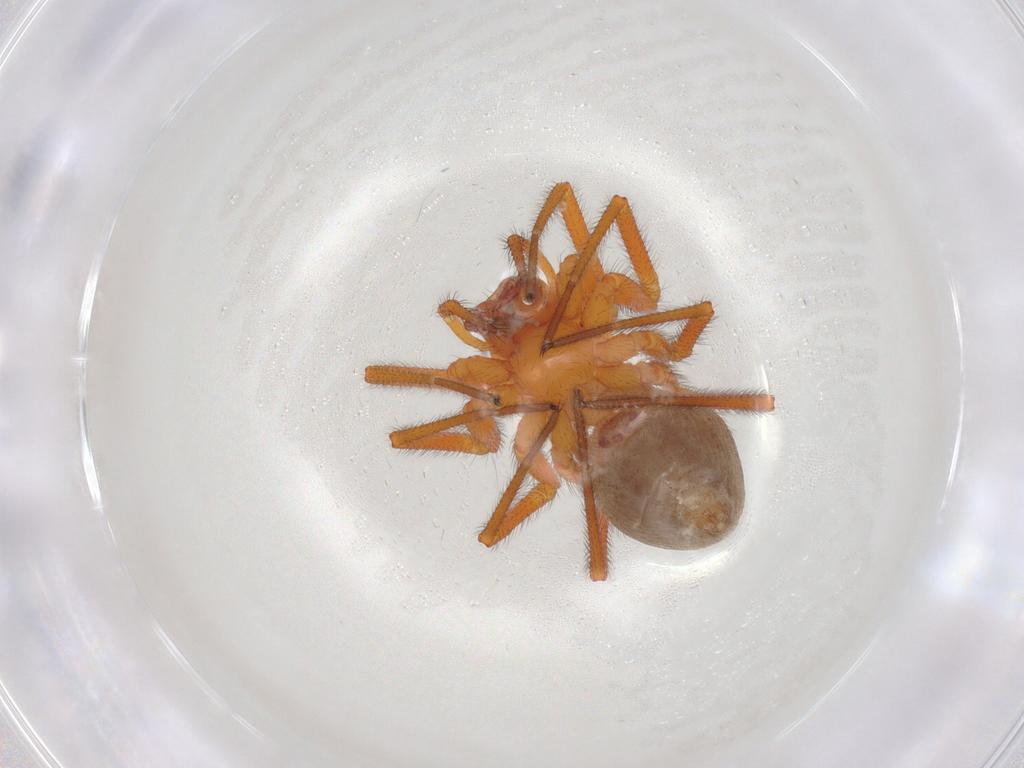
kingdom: Animalia
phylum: Arthropoda
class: Arachnida
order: Araneae
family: Linyphiidae
